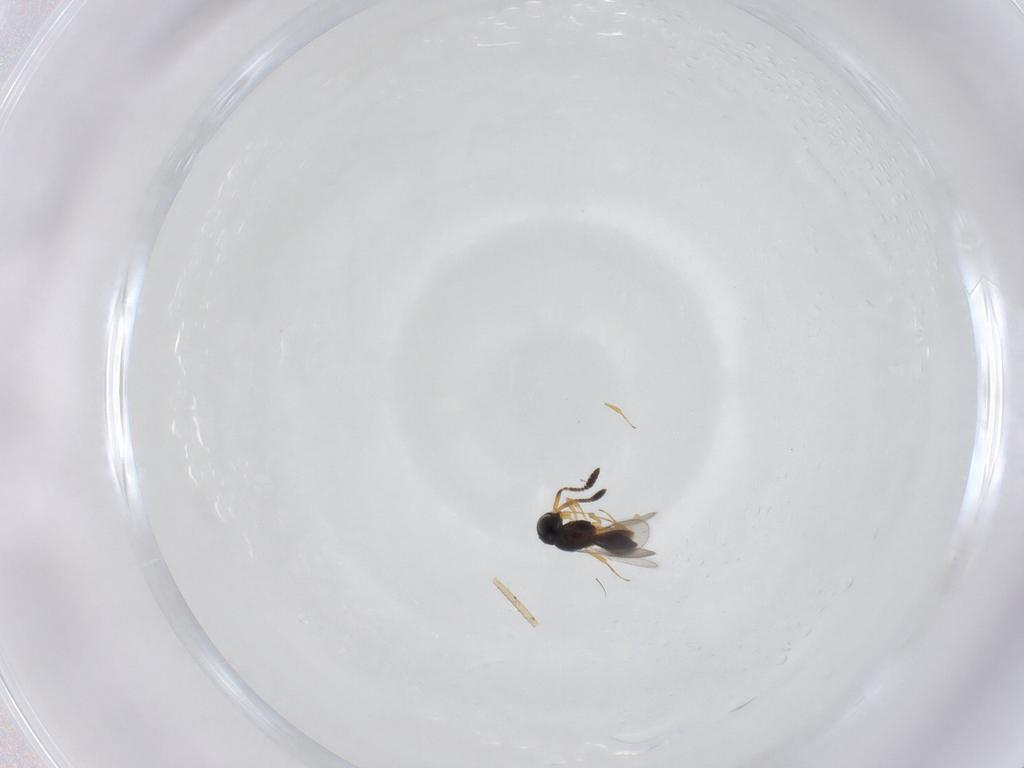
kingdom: Animalia
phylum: Arthropoda
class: Insecta
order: Hymenoptera
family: Scelionidae
